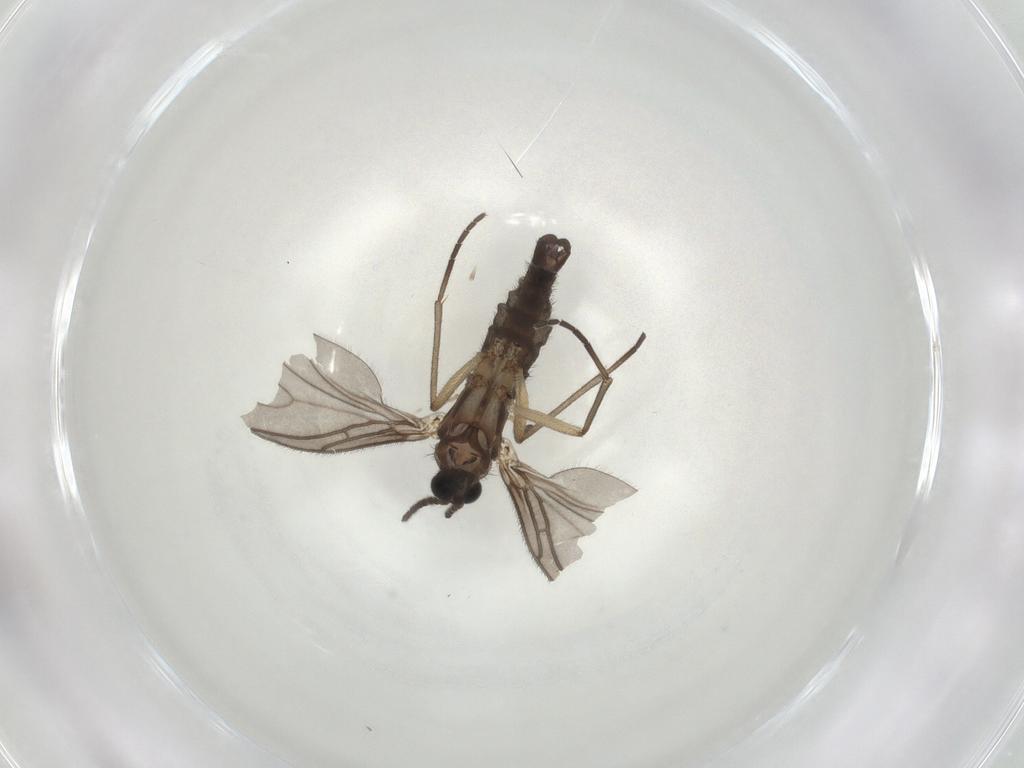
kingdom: Animalia
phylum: Arthropoda
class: Insecta
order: Diptera
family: Sciaridae
